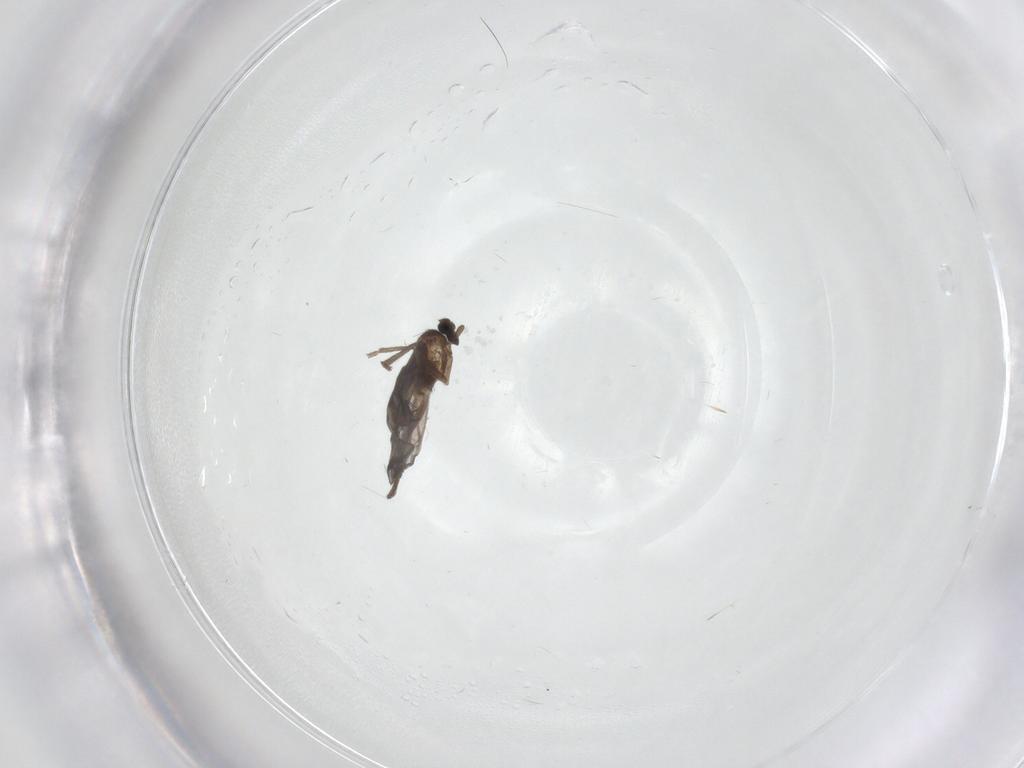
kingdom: Animalia
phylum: Arthropoda
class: Insecta
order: Diptera
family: Phoridae
